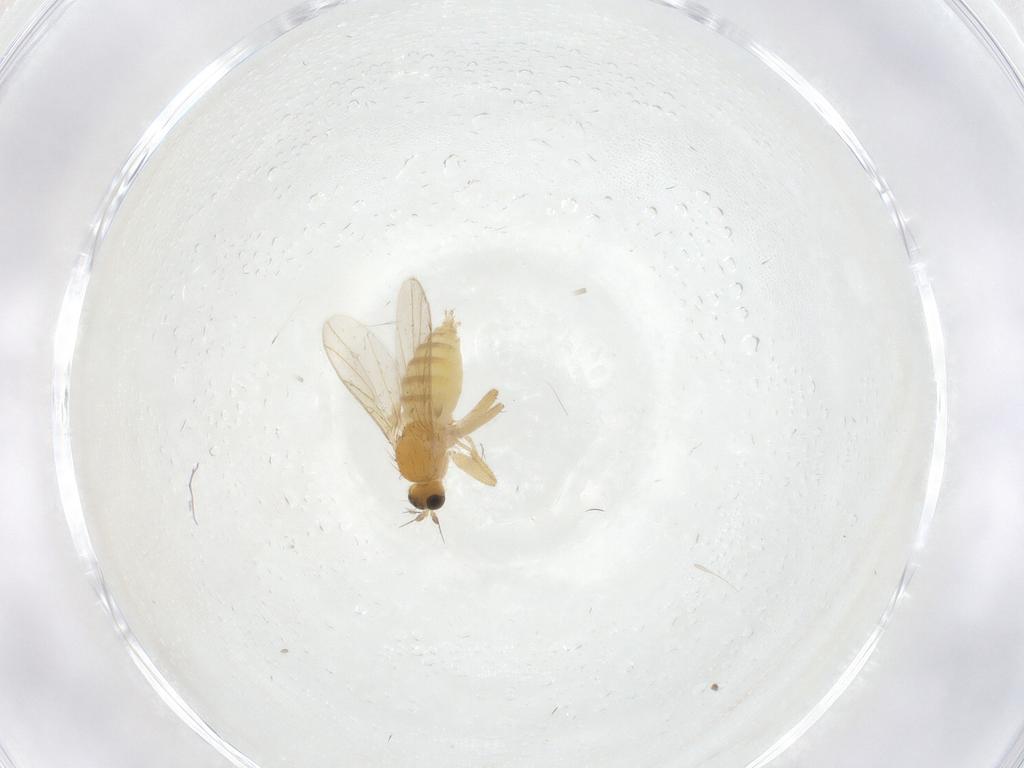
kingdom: Animalia
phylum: Arthropoda
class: Insecta
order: Diptera
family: Hybotidae
